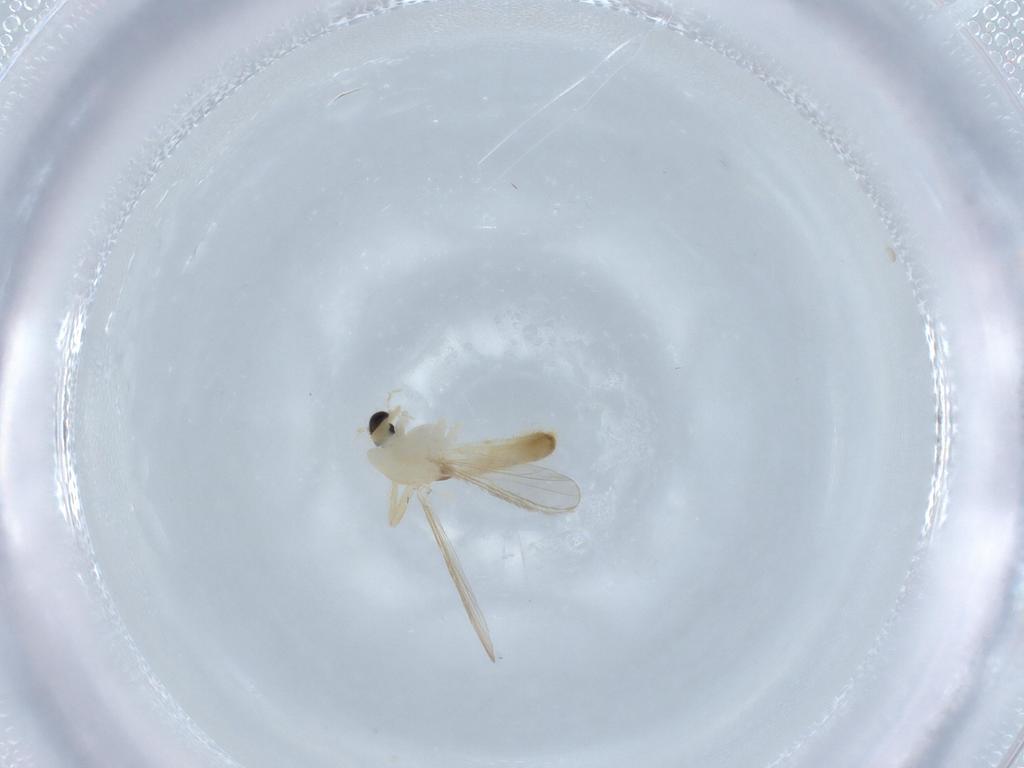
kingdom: Animalia
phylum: Arthropoda
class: Insecta
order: Diptera
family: Chironomidae
